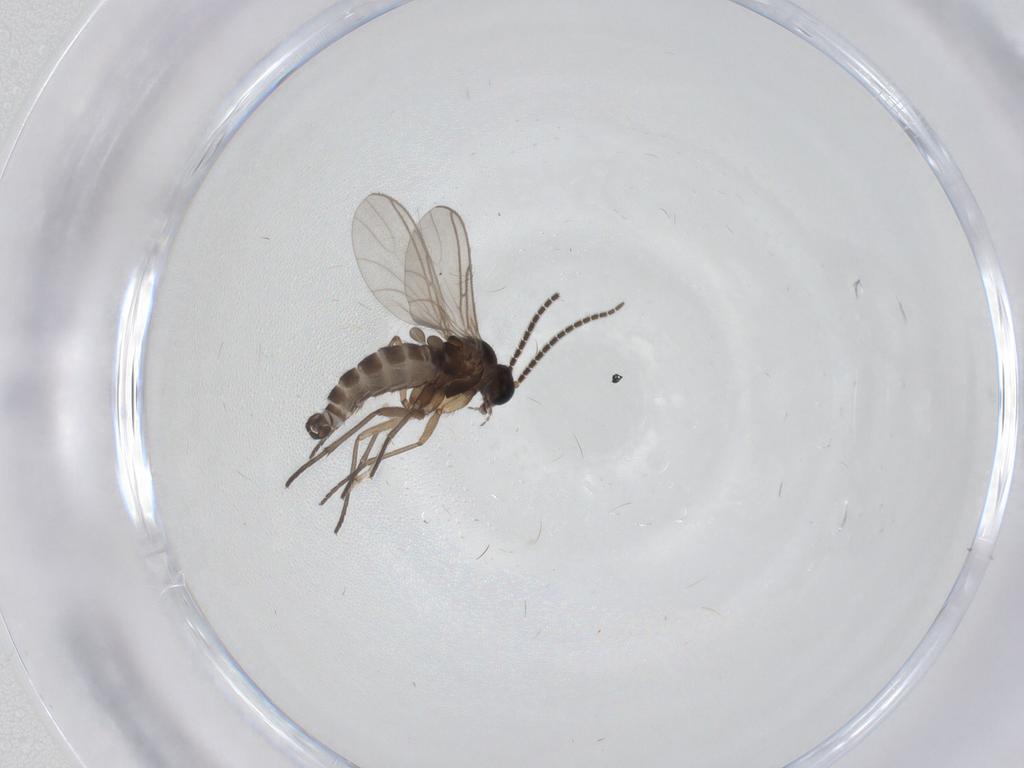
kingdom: Animalia
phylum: Arthropoda
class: Insecta
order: Diptera
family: Sciaridae
